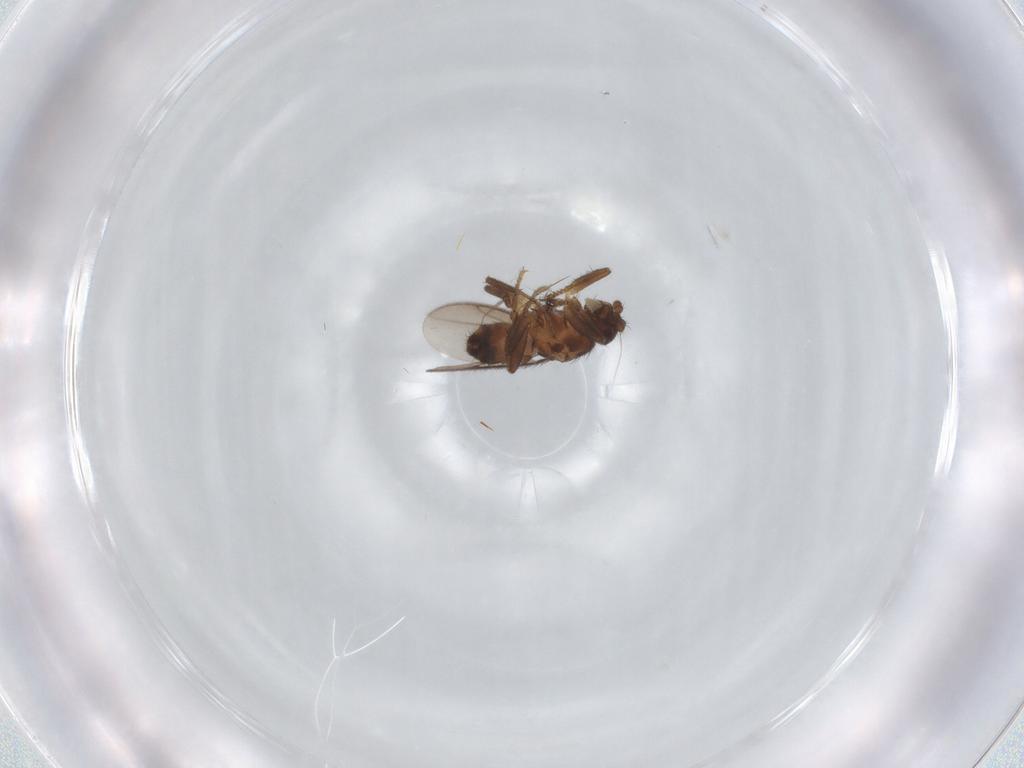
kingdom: Animalia
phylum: Arthropoda
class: Insecta
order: Diptera
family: Sphaeroceridae
